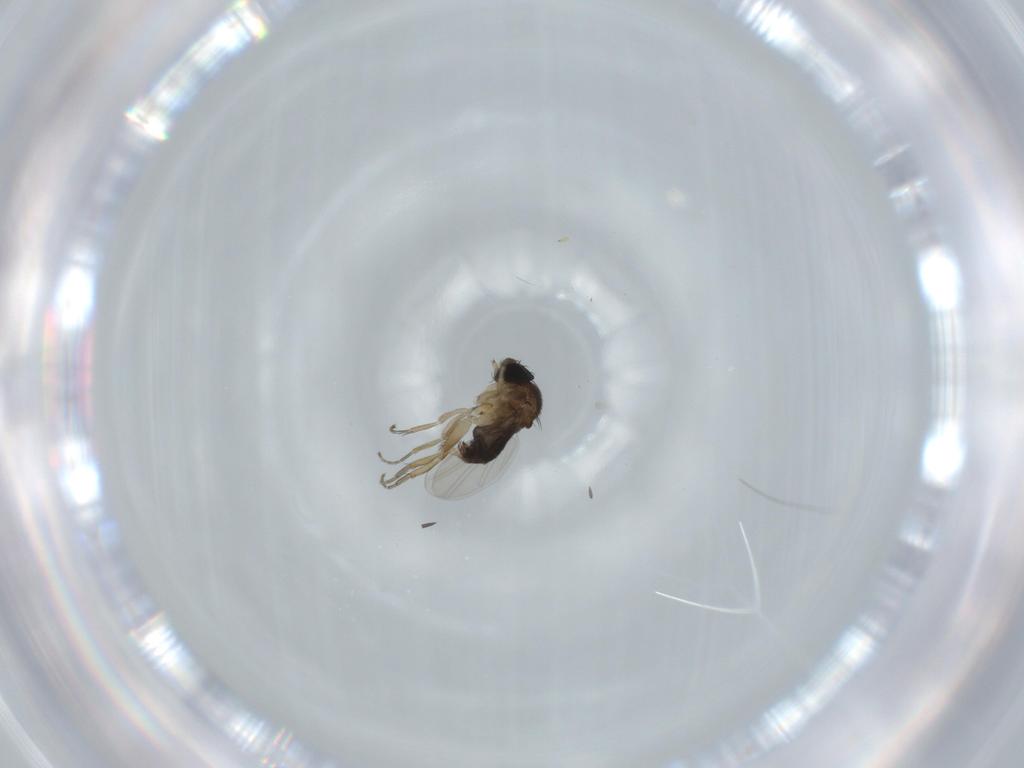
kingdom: Animalia
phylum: Arthropoda
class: Insecta
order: Diptera
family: Phoridae
